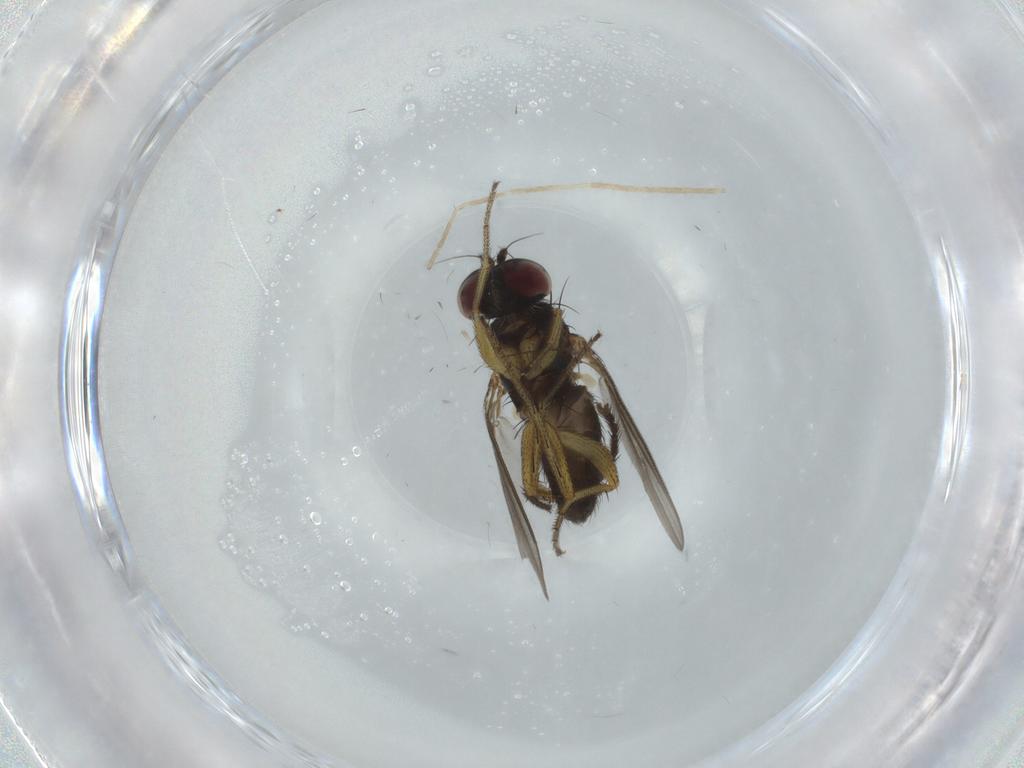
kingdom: Animalia
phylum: Arthropoda
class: Insecta
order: Diptera
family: Muscidae
